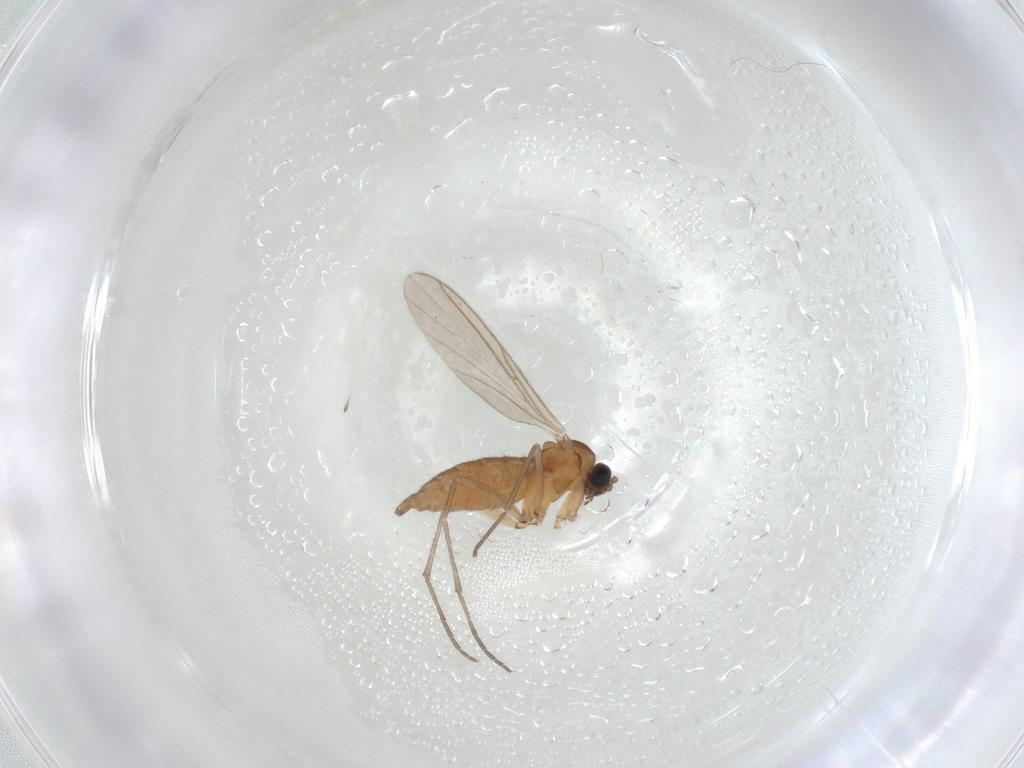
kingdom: Animalia
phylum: Arthropoda
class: Insecta
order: Diptera
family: Sciaridae
